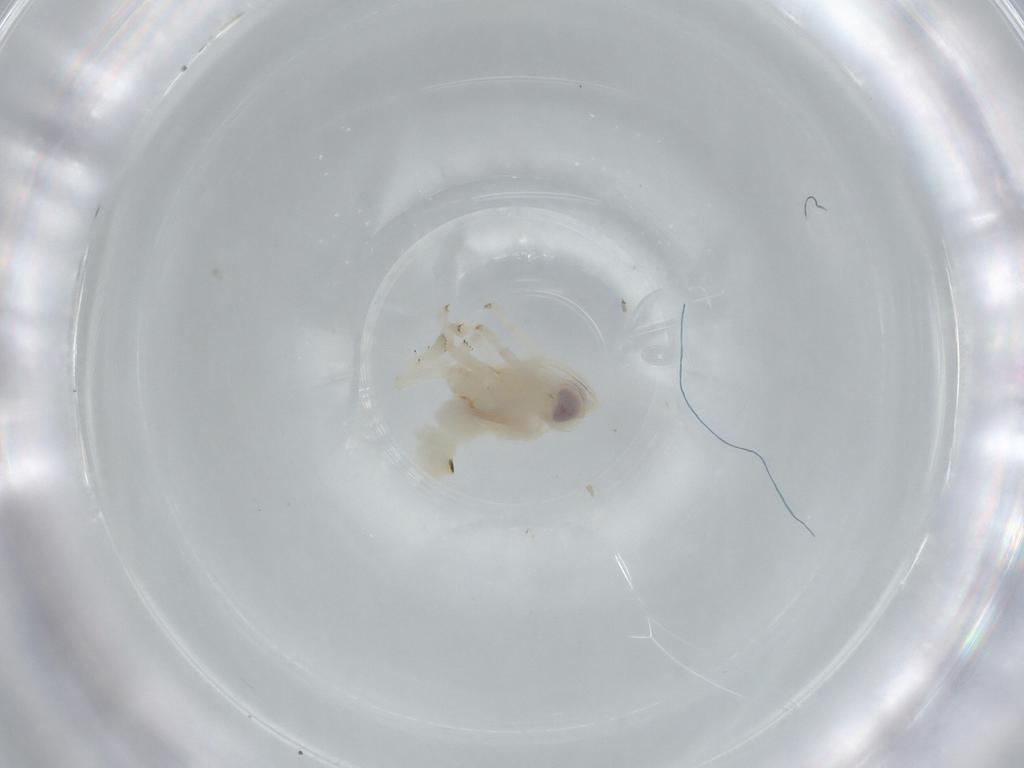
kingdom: Animalia
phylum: Arthropoda
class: Insecta
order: Hemiptera
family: Nogodinidae
